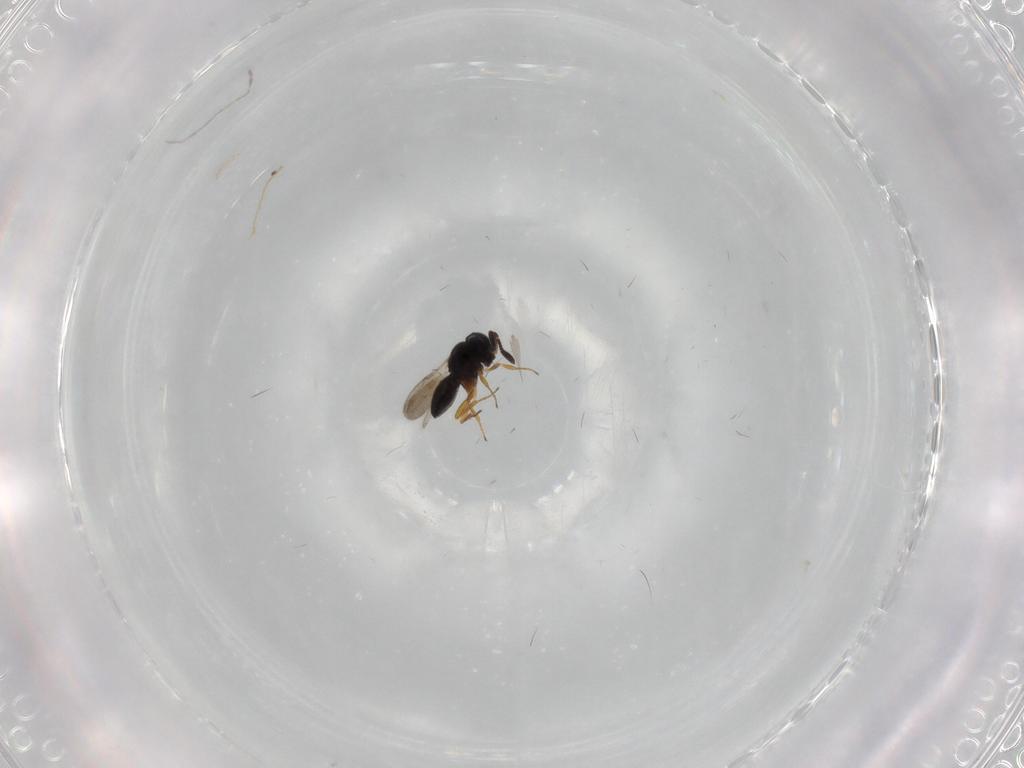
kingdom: Animalia
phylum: Arthropoda
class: Insecta
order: Hymenoptera
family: Scelionidae
